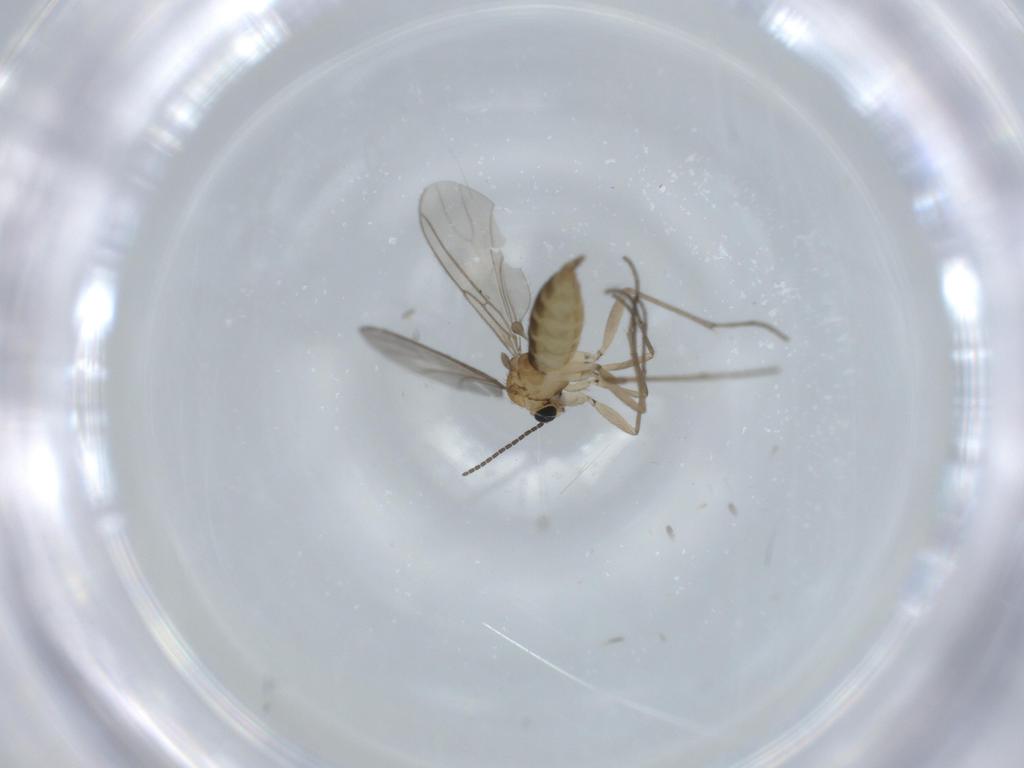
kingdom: Animalia
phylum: Arthropoda
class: Insecta
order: Diptera
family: Sciaridae
